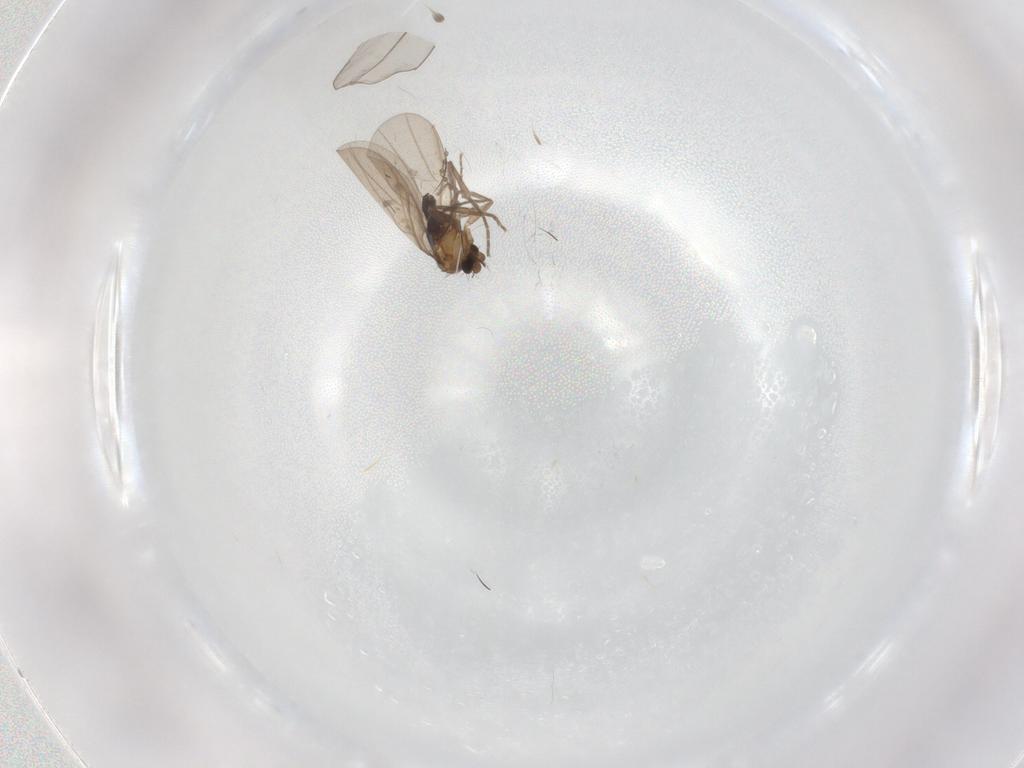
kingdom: Animalia
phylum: Arthropoda
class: Insecta
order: Diptera
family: Phoridae
